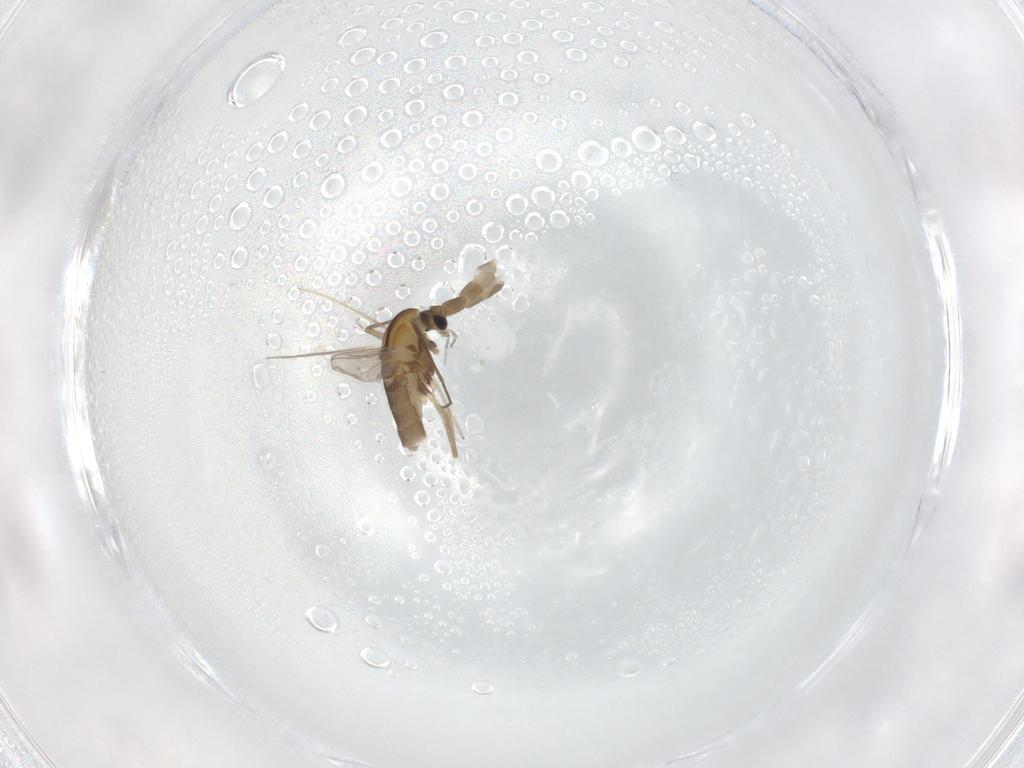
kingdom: Animalia
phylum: Arthropoda
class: Insecta
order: Diptera
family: Chironomidae
